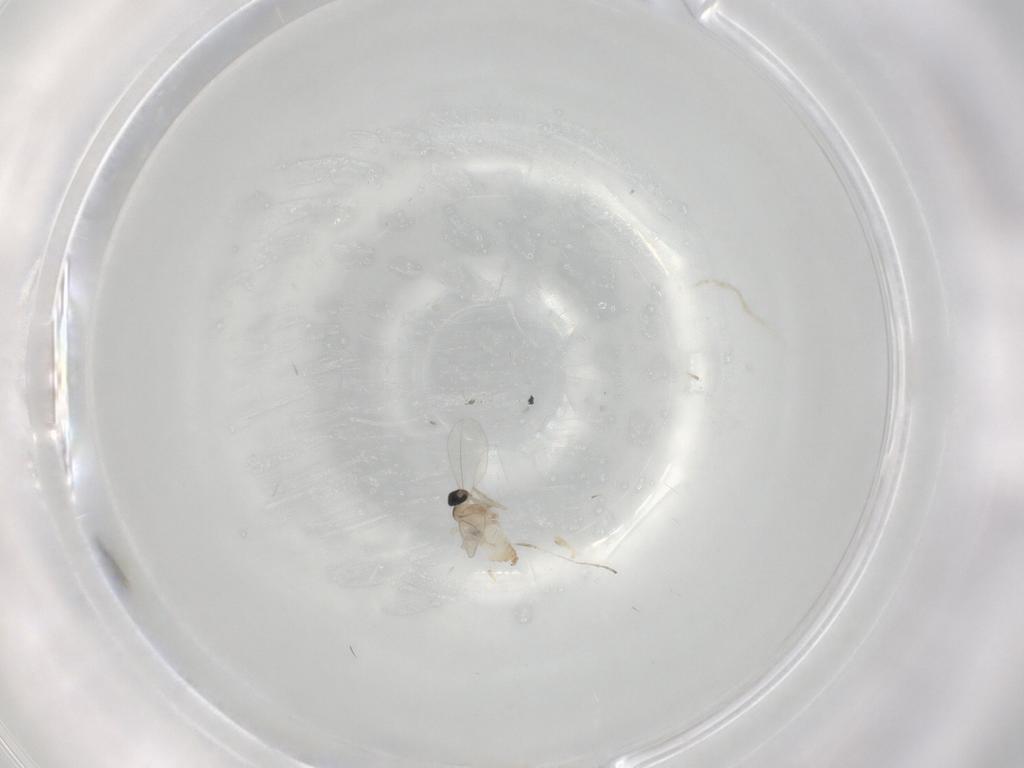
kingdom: Animalia
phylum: Arthropoda
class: Insecta
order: Diptera
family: Cecidomyiidae
